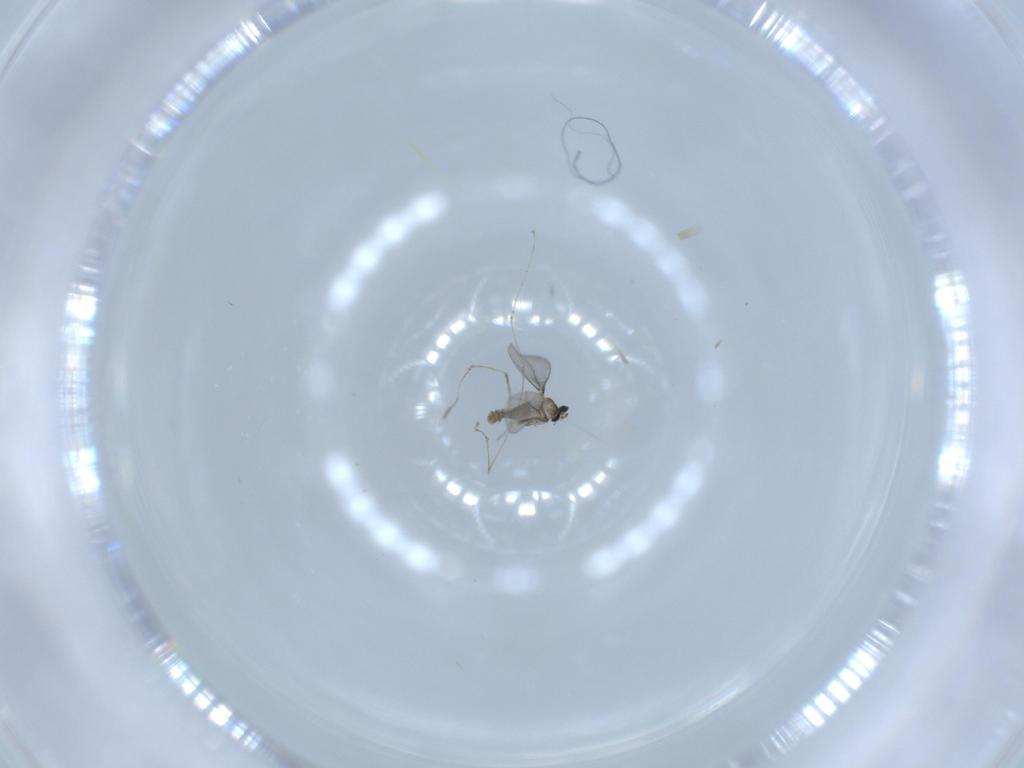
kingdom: Animalia
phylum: Arthropoda
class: Insecta
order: Diptera
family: Cecidomyiidae
